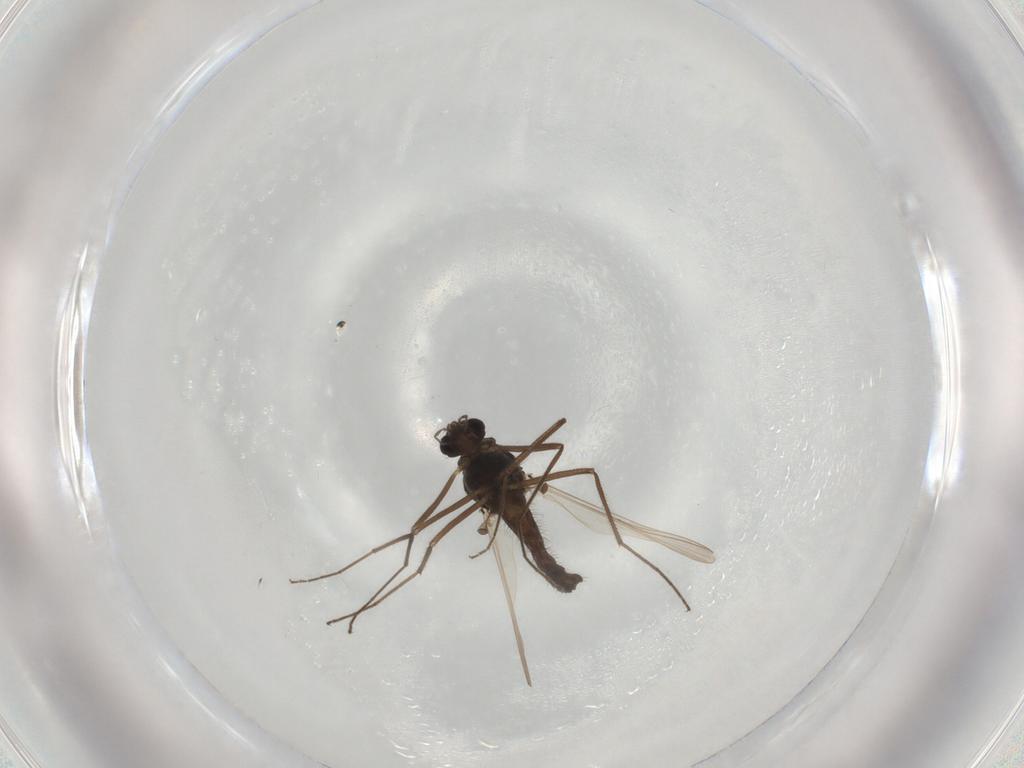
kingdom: Animalia
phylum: Arthropoda
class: Insecta
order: Diptera
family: Chironomidae
